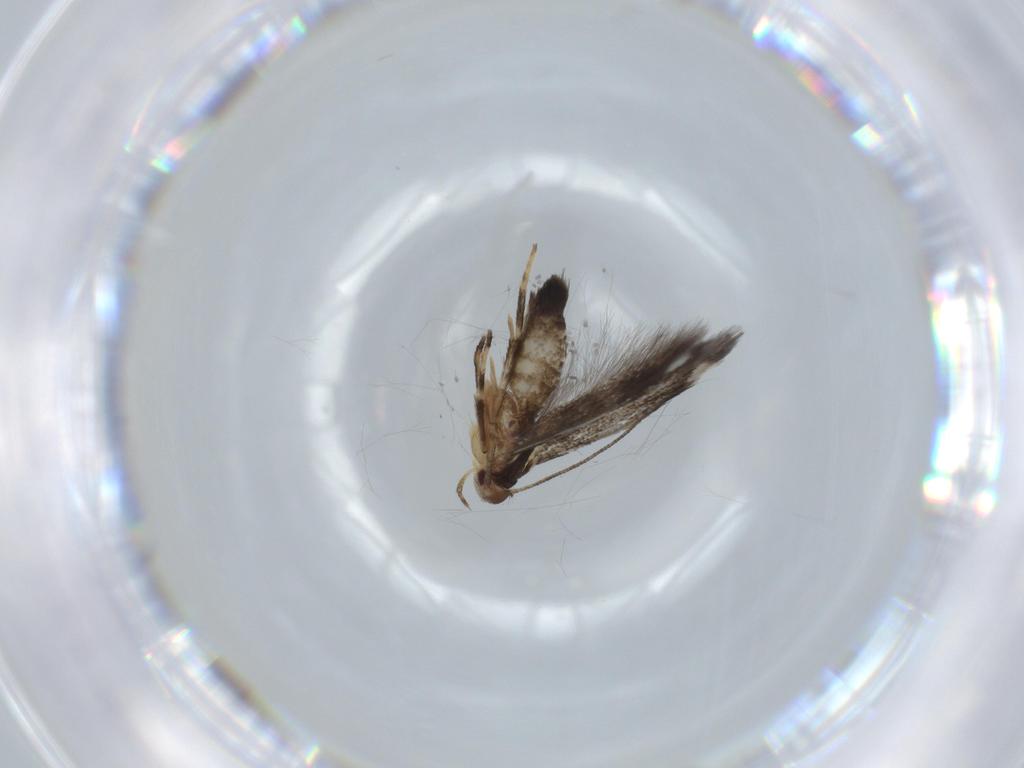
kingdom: Animalia
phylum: Arthropoda
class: Insecta
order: Lepidoptera
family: Cosmopterigidae
